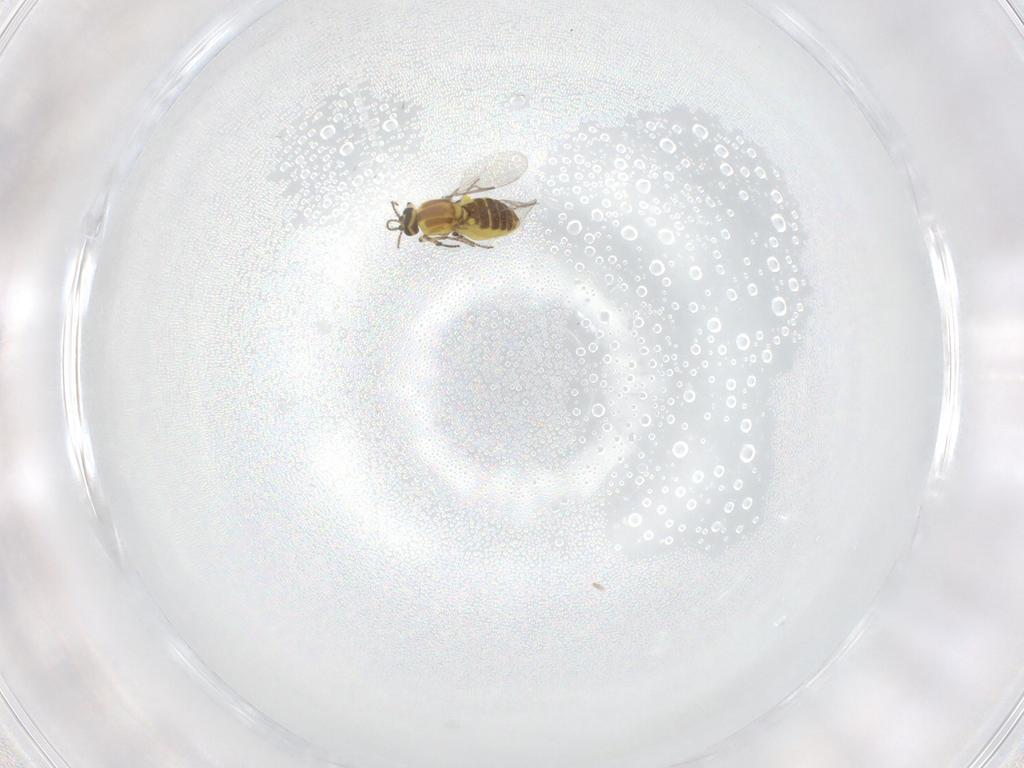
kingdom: Animalia
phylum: Arthropoda
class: Insecta
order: Diptera
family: Ceratopogonidae
